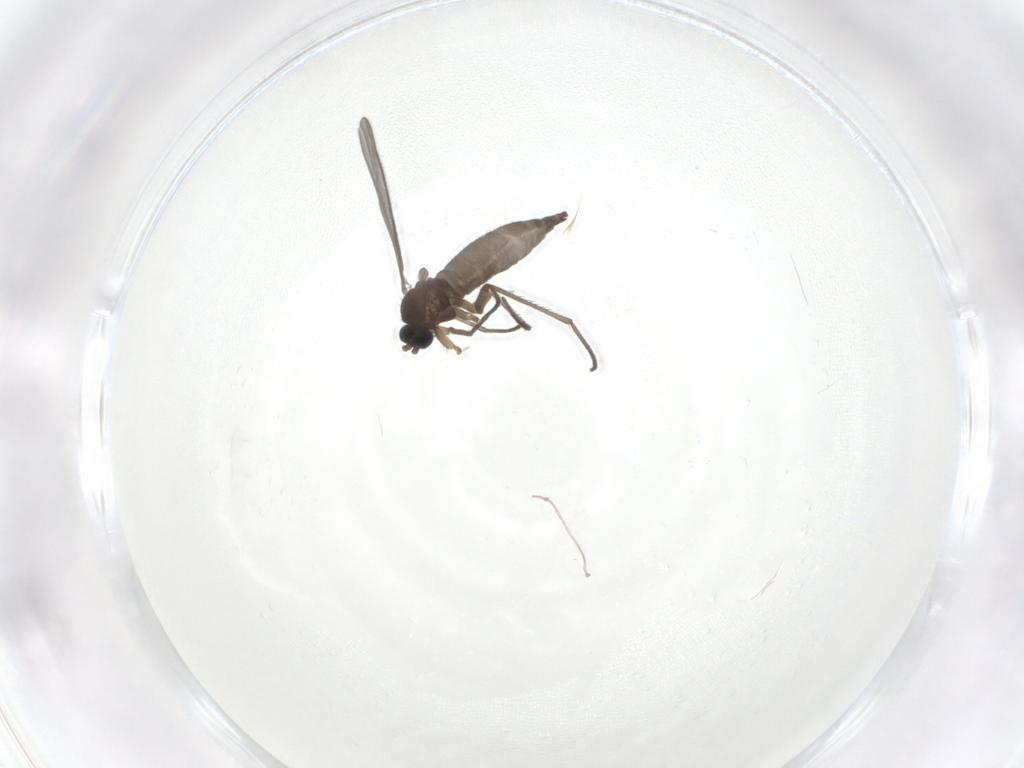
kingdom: Animalia
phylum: Arthropoda
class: Insecta
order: Diptera
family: Sciaridae
